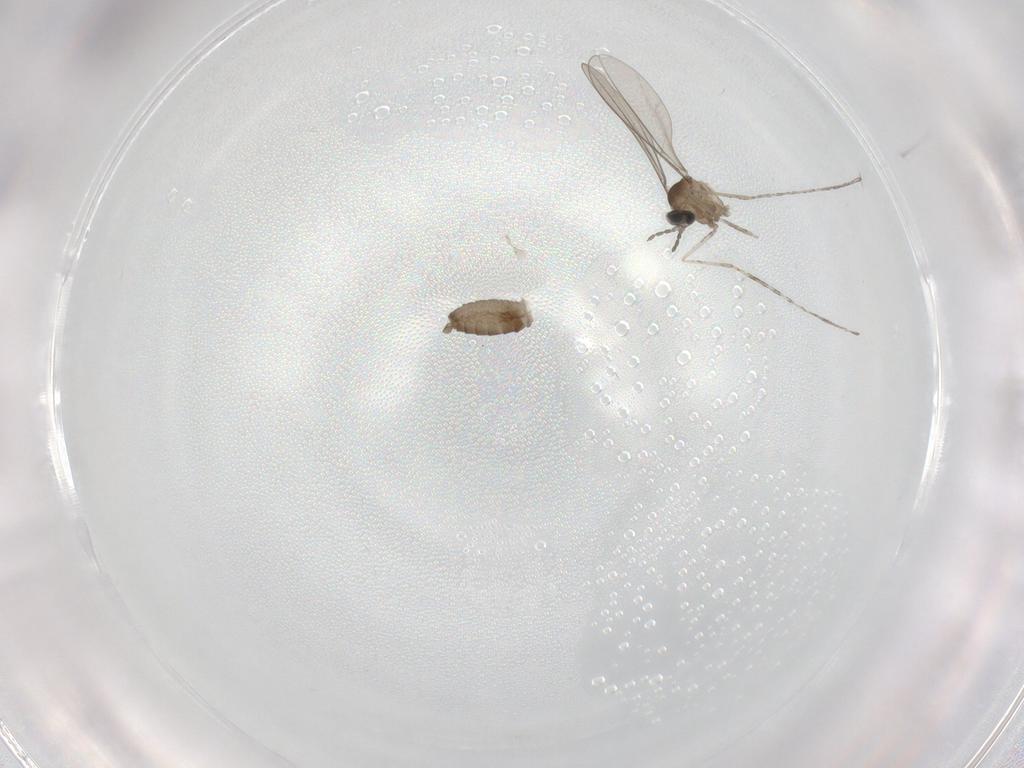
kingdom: Animalia
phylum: Arthropoda
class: Insecta
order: Diptera
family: Cecidomyiidae
